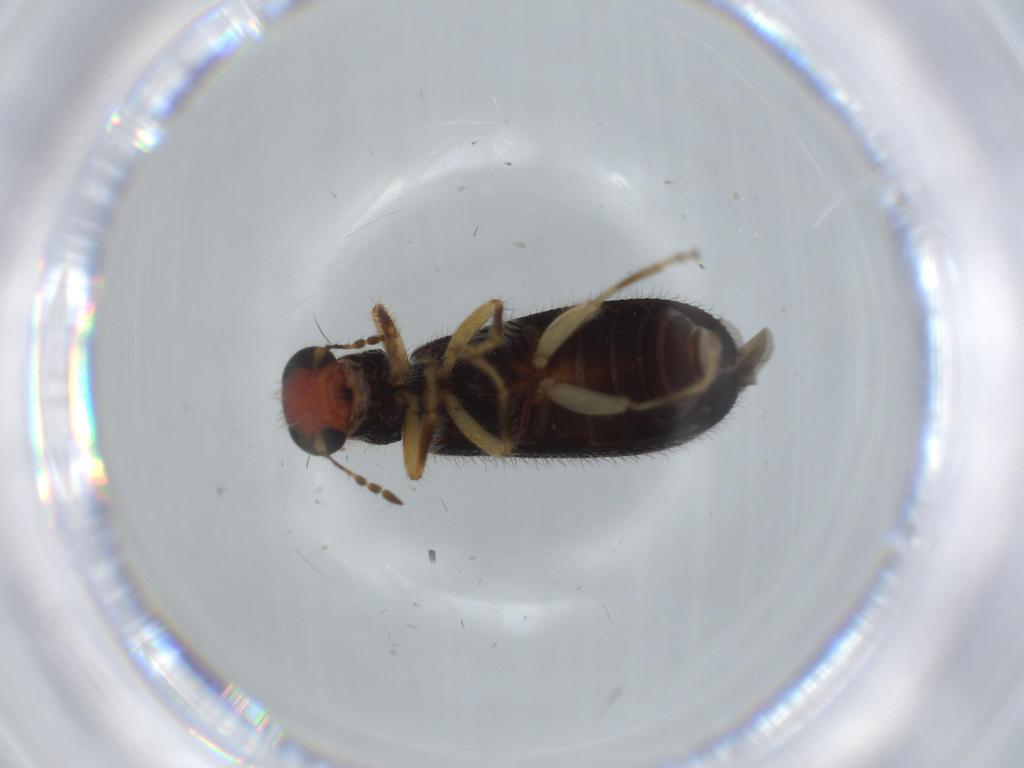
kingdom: Animalia
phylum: Arthropoda
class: Insecta
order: Coleoptera
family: Cleridae
